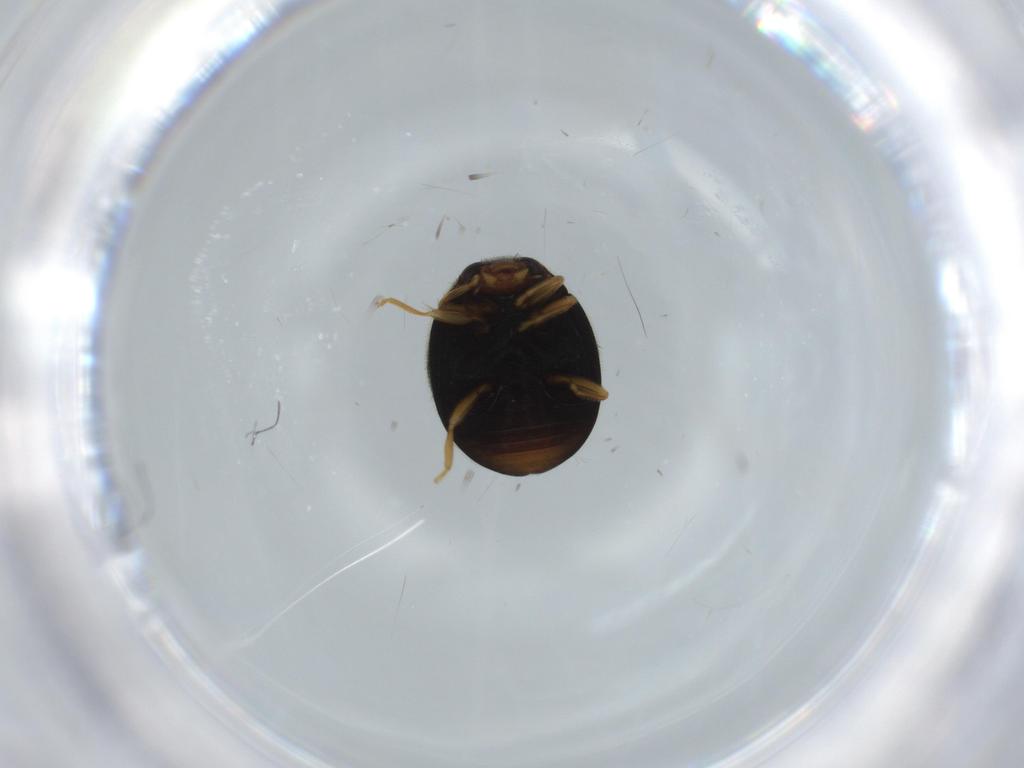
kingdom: Animalia
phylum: Arthropoda
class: Insecta
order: Coleoptera
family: Coccinellidae
